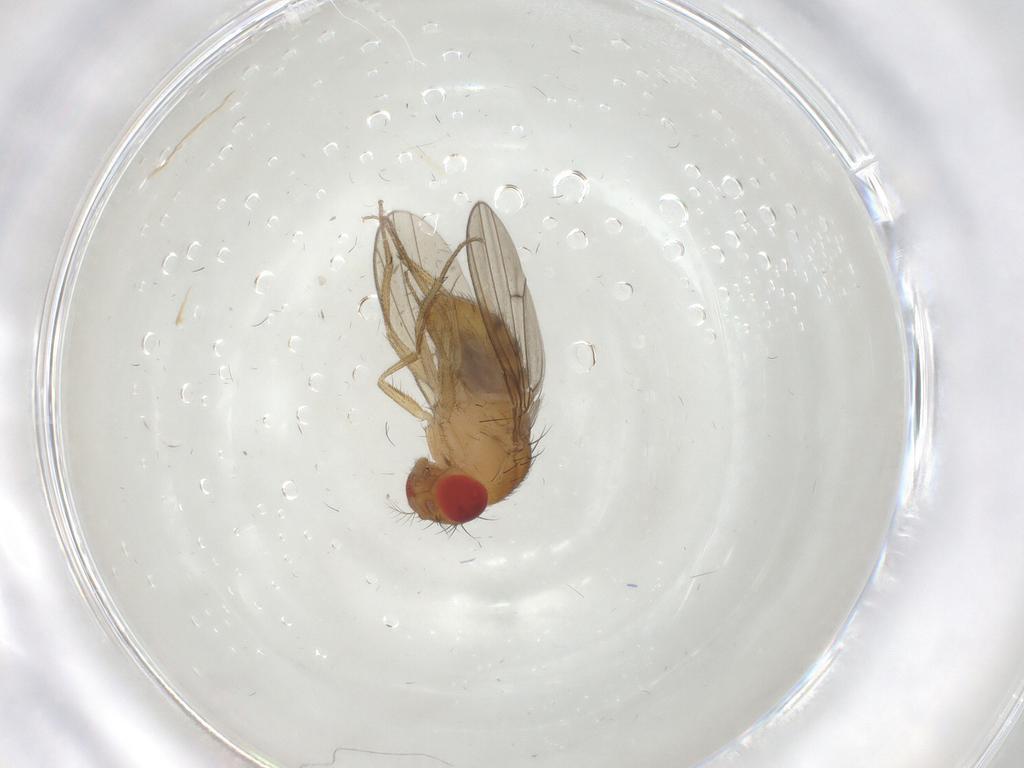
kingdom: Animalia
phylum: Arthropoda
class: Insecta
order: Diptera
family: Drosophilidae
